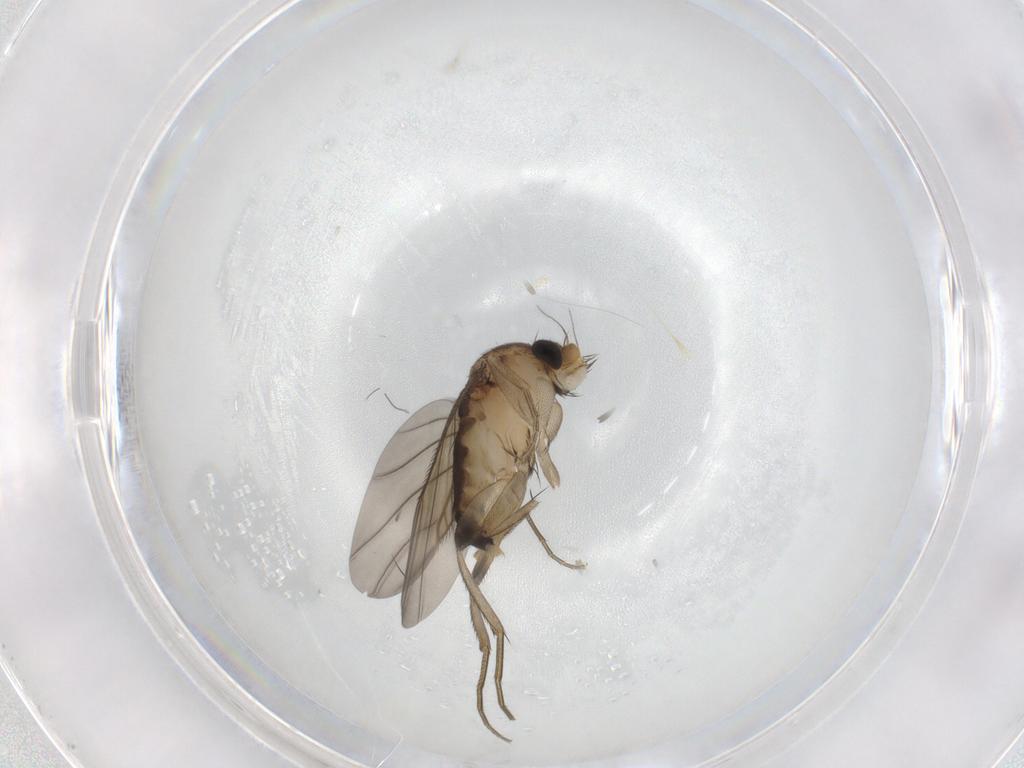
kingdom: Animalia
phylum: Arthropoda
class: Insecta
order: Diptera
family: Phoridae
